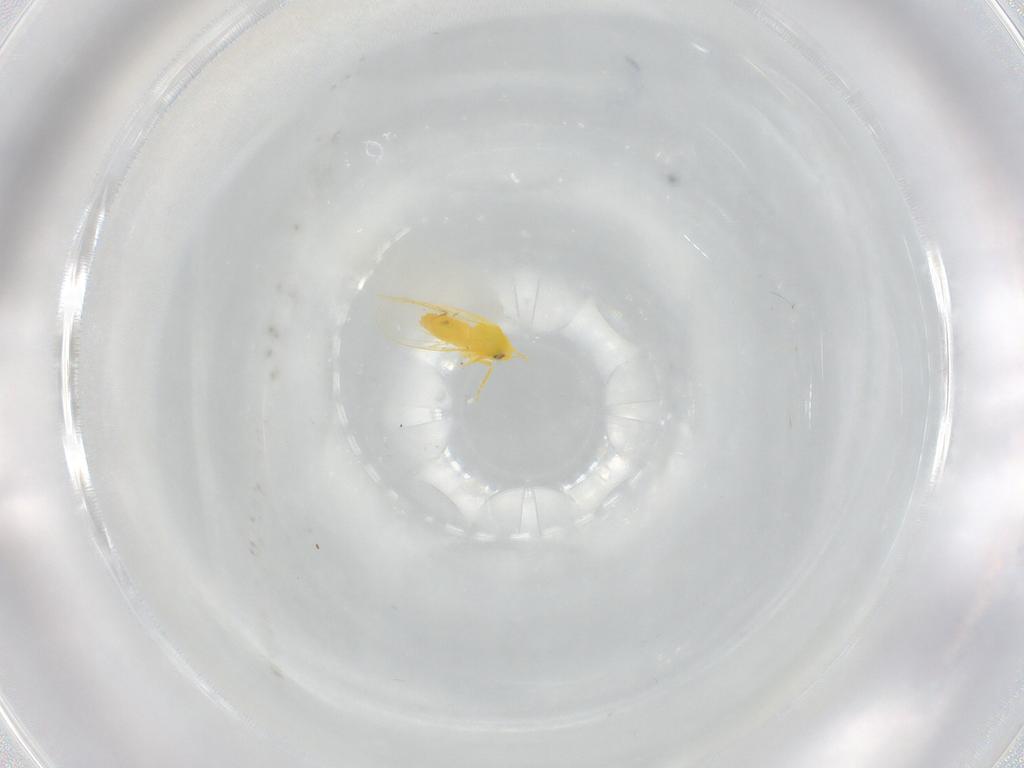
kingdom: Animalia
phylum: Arthropoda
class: Insecta
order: Hemiptera
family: Aleyrodidae
